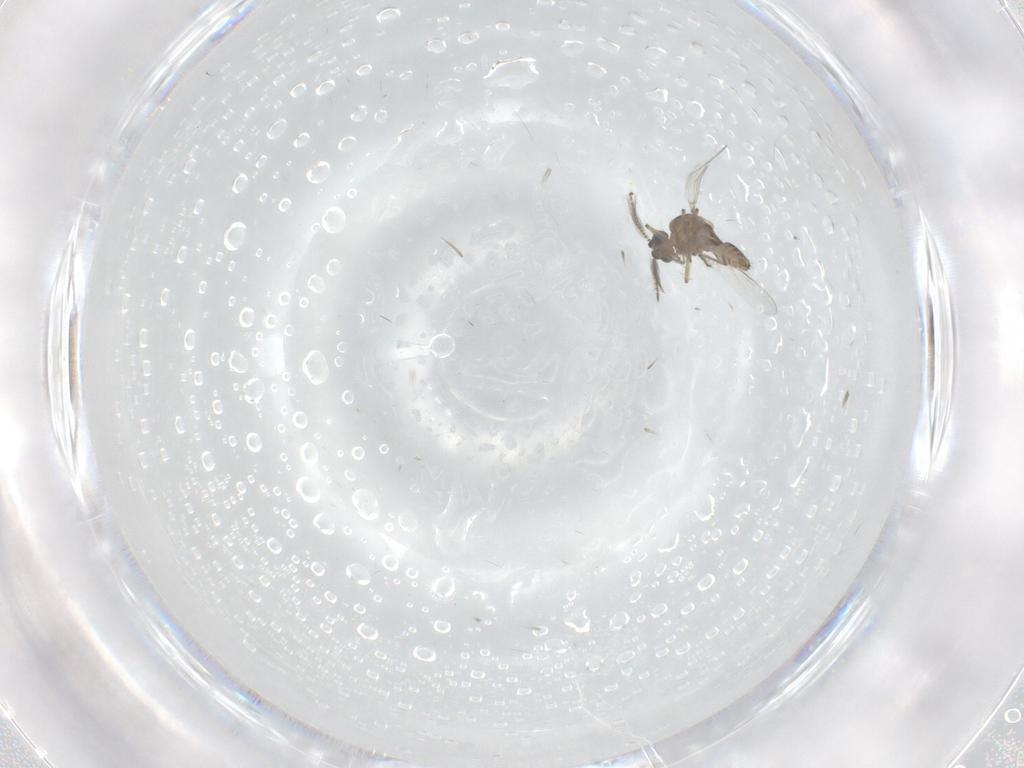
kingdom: Animalia
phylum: Arthropoda
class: Insecta
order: Diptera
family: Ceratopogonidae
